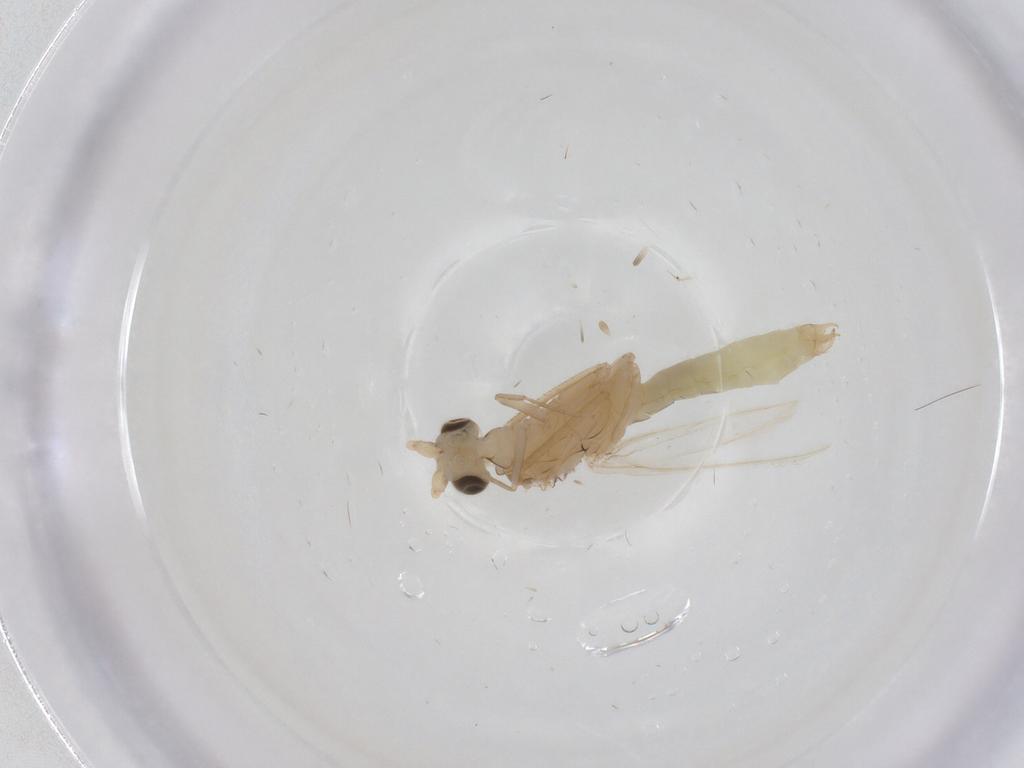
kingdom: Animalia
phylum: Arthropoda
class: Insecta
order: Trichoptera
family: Leptoceridae
